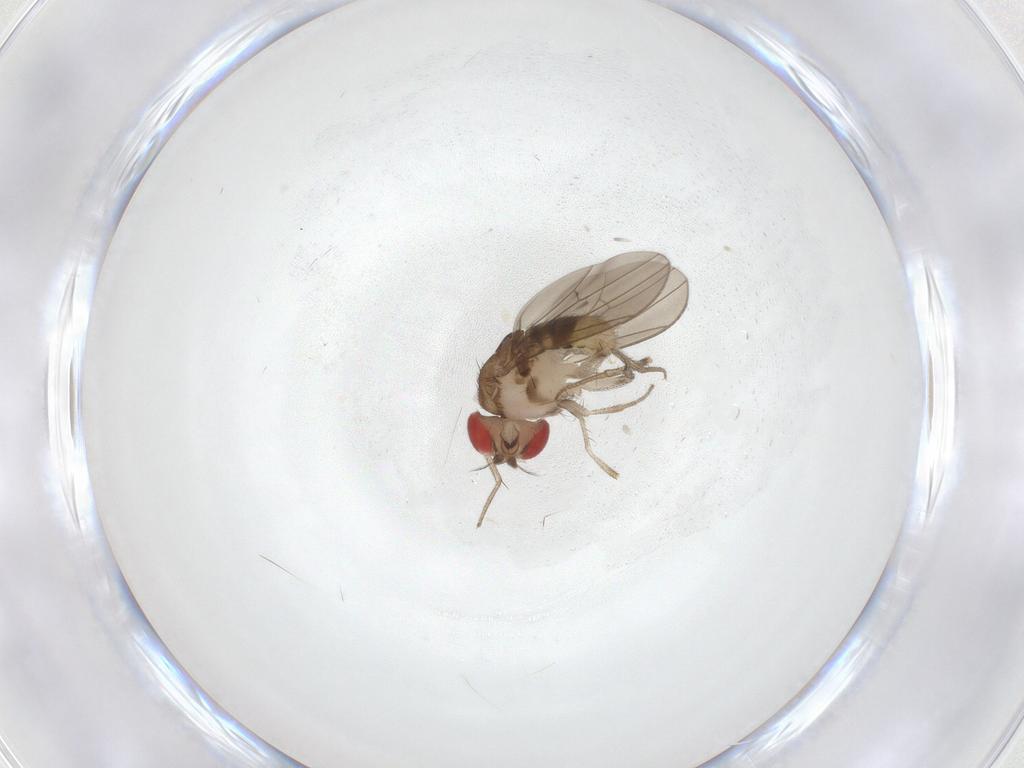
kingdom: Animalia
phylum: Arthropoda
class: Insecta
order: Diptera
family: Drosophilidae
